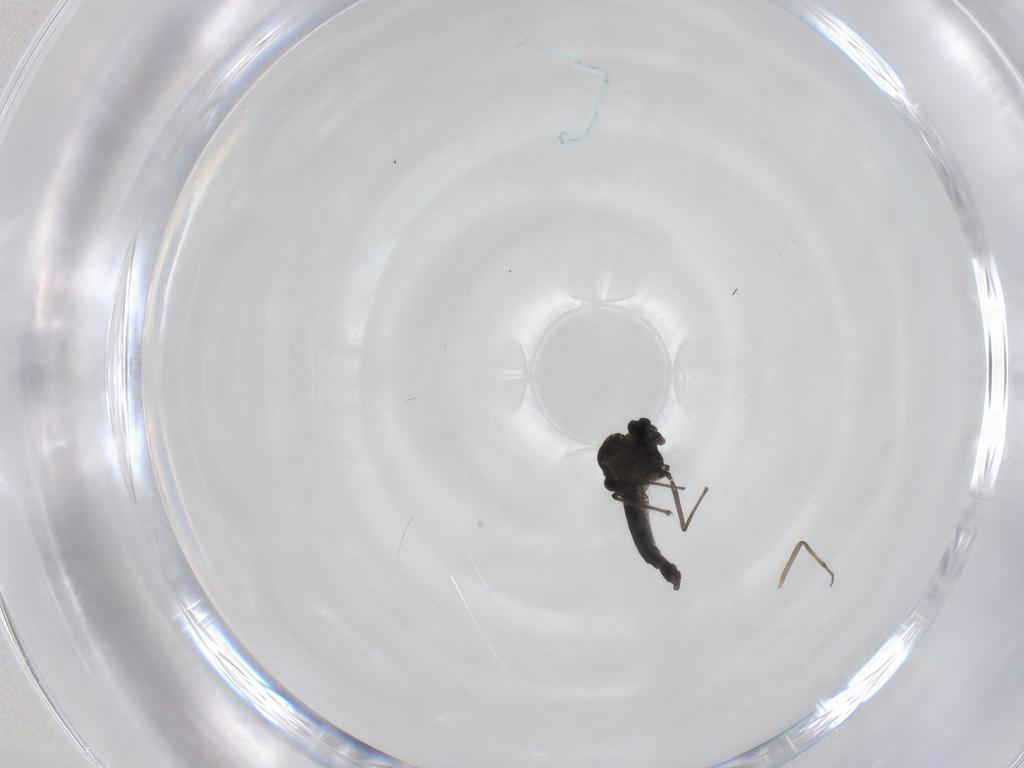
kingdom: Animalia
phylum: Arthropoda
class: Insecta
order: Diptera
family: Chironomidae
